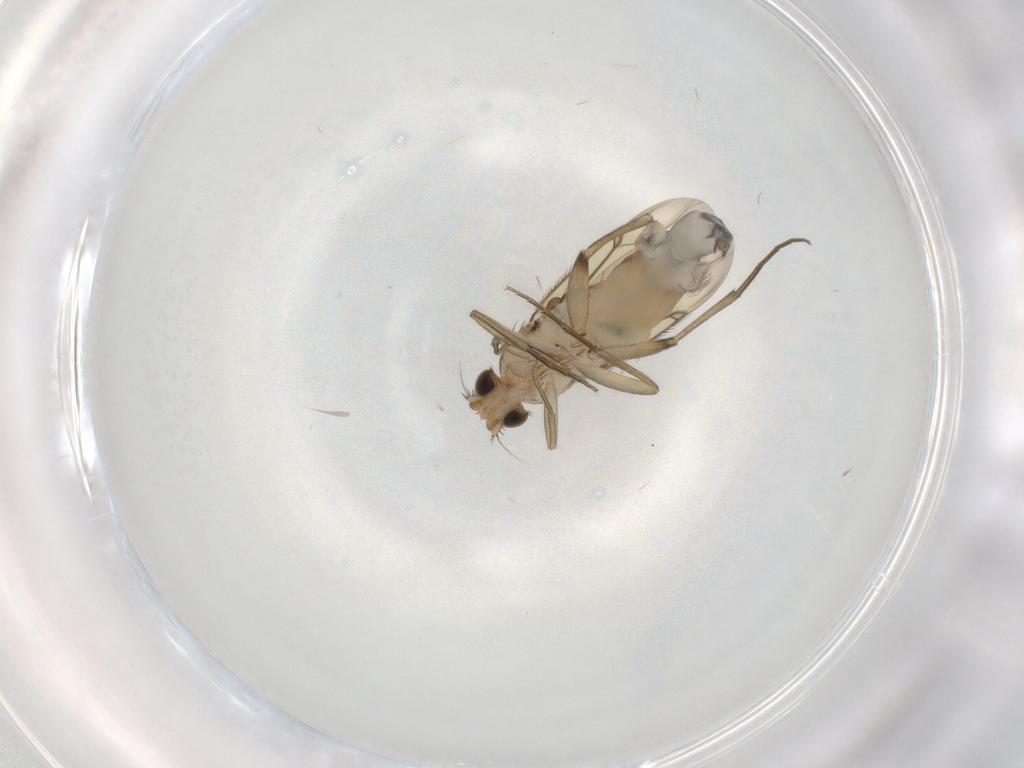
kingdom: Animalia
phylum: Arthropoda
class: Insecta
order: Diptera
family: Phoridae
